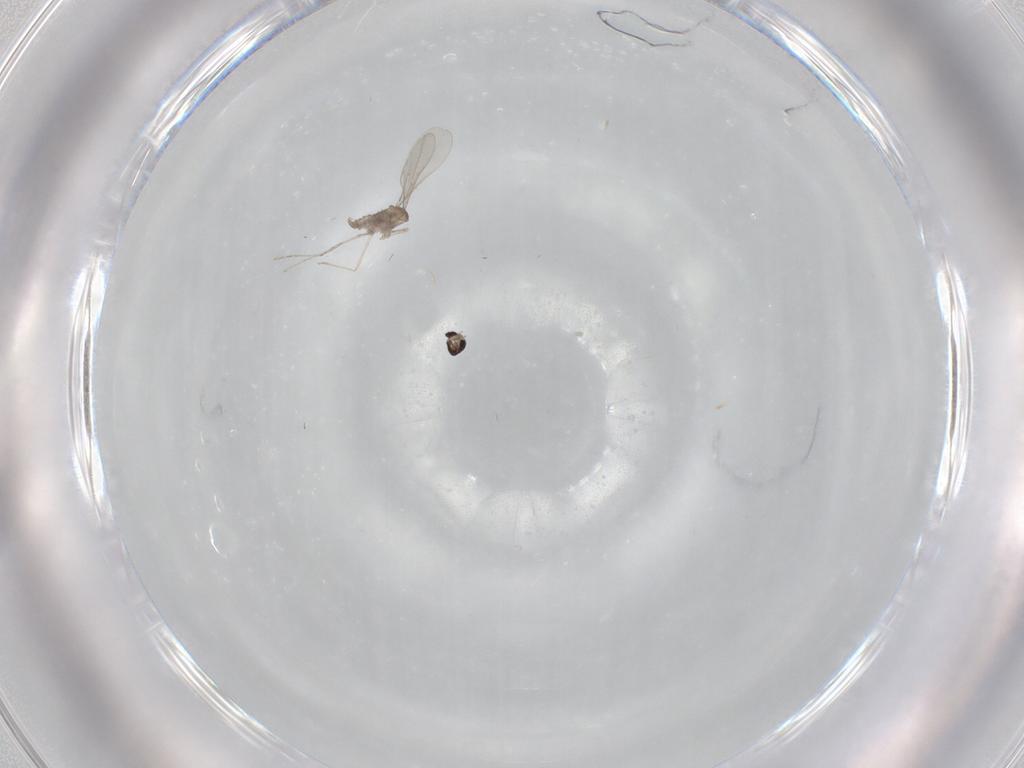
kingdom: Animalia
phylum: Arthropoda
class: Insecta
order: Diptera
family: Cecidomyiidae
